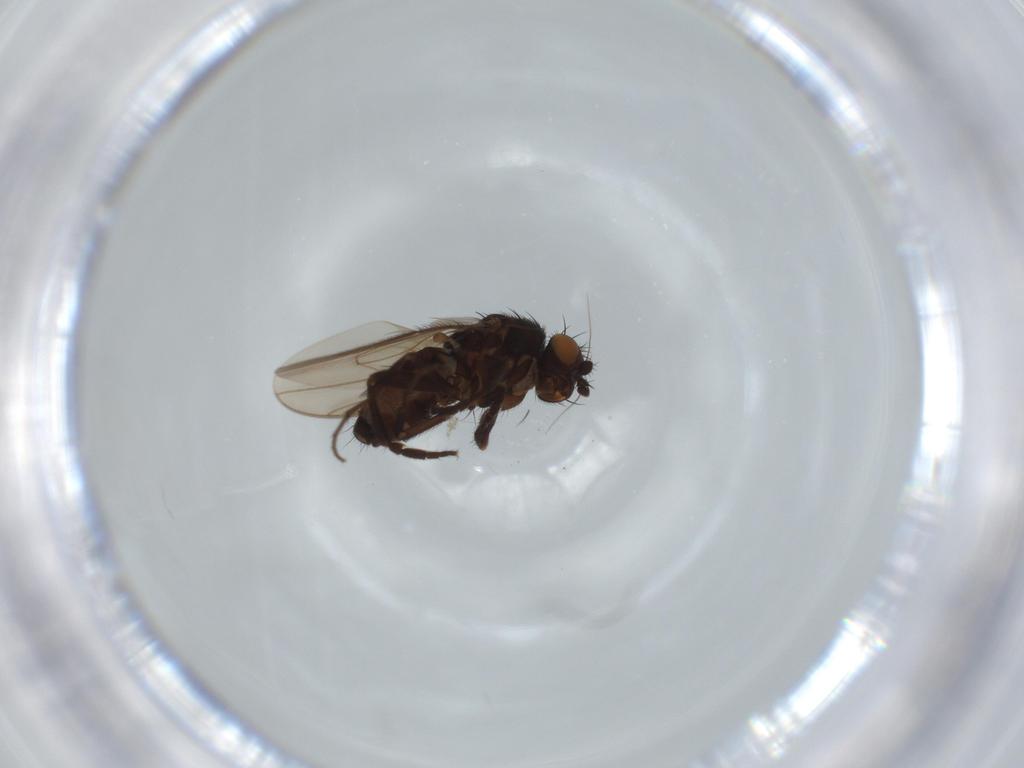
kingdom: Animalia
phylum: Arthropoda
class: Insecta
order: Diptera
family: Sphaeroceridae
